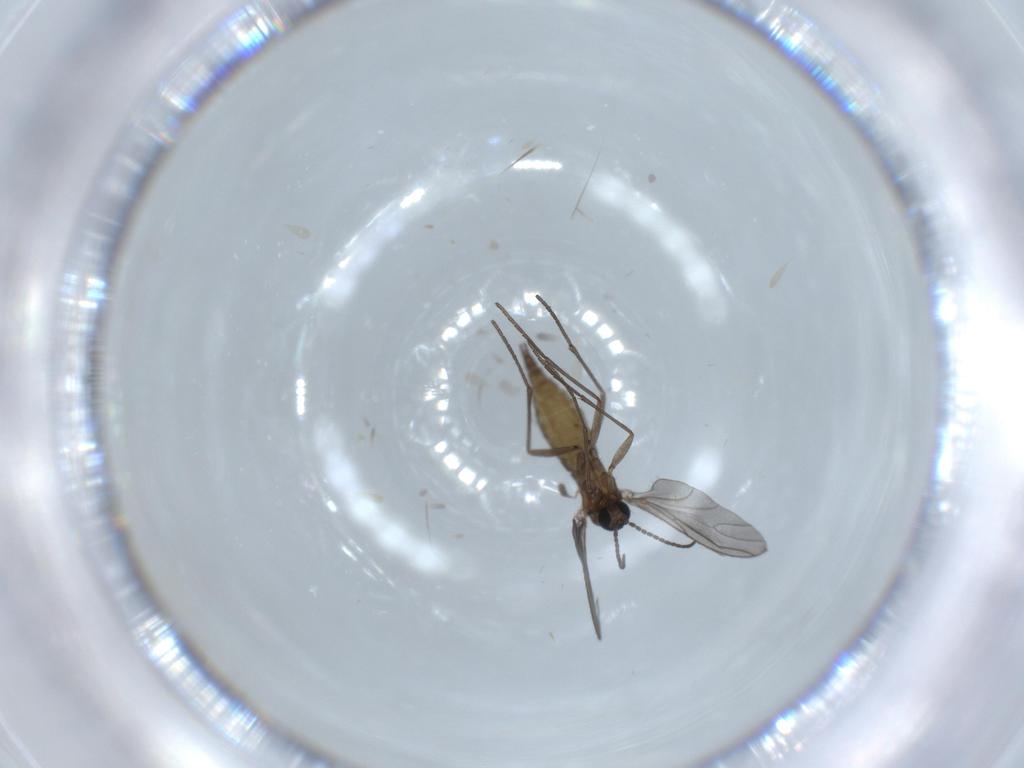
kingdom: Animalia
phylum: Arthropoda
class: Insecta
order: Diptera
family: Sciaridae
